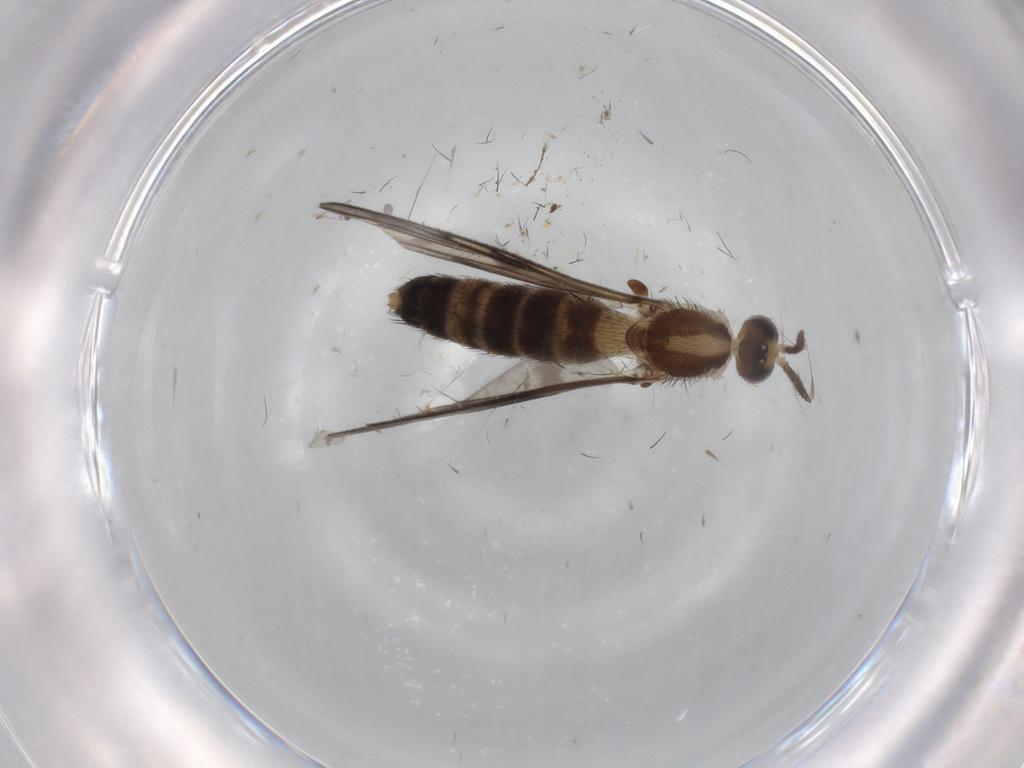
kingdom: Animalia
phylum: Arthropoda
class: Insecta
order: Diptera
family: Keroplatidae
